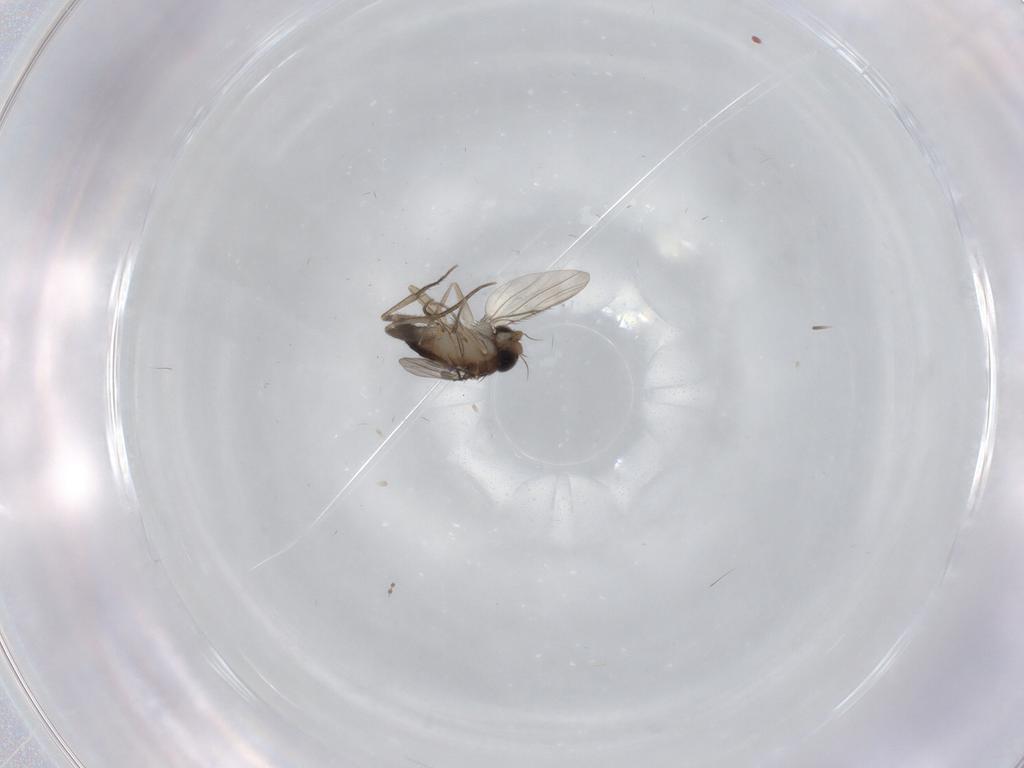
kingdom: Animalia
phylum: Arthropoda
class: Insecta
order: Diptera
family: Phoridae
